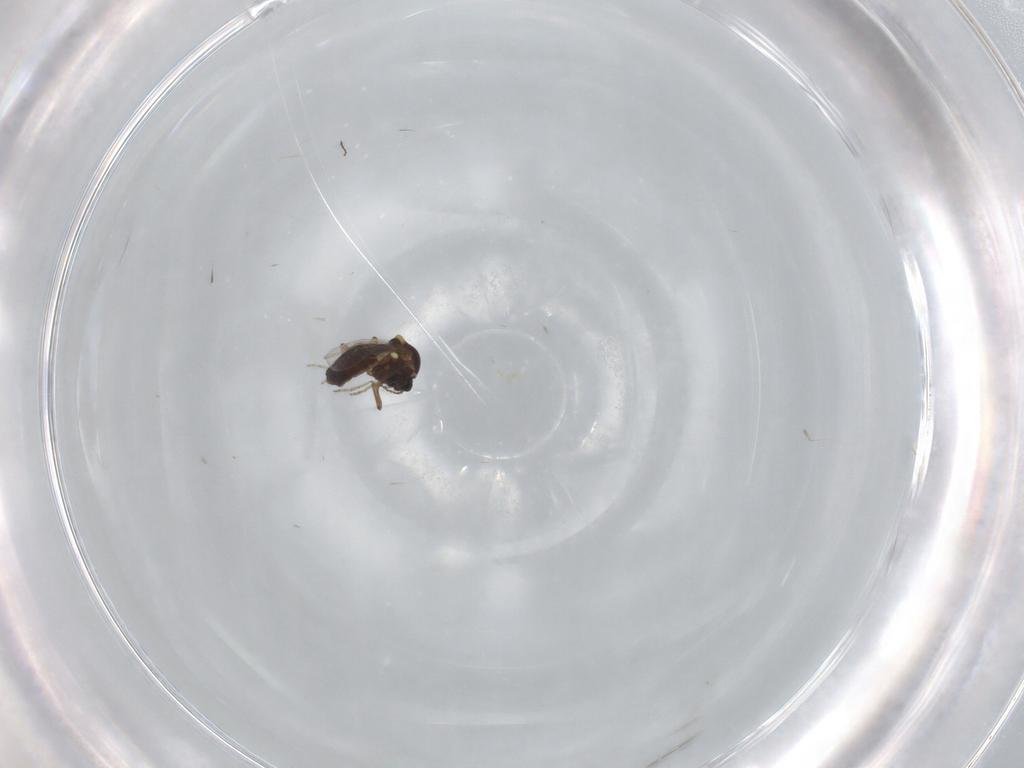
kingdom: Animalia
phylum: Arthropoda
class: Insecta
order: Diptera
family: Ceratopogonidae
